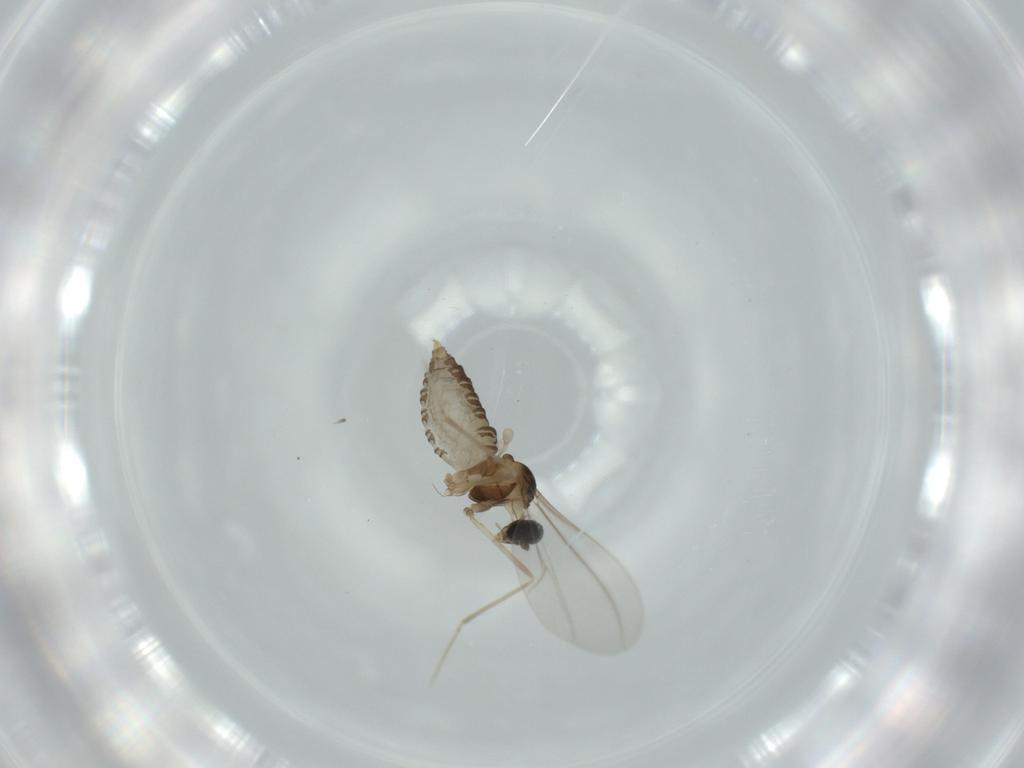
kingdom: Animalia
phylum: Arthropoda
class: Insecta
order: Diptera
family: Cecidomyiidae
